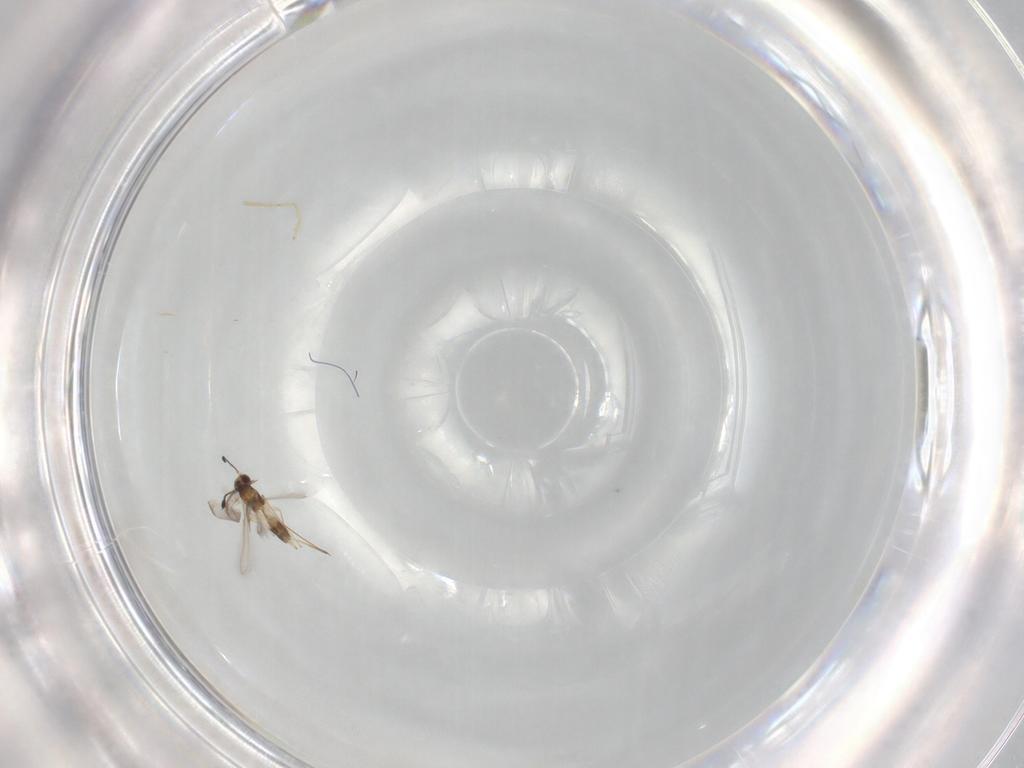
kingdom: Animalia
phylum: Arthropoda
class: Insecta
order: Hymenoptera
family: Mymaridae
